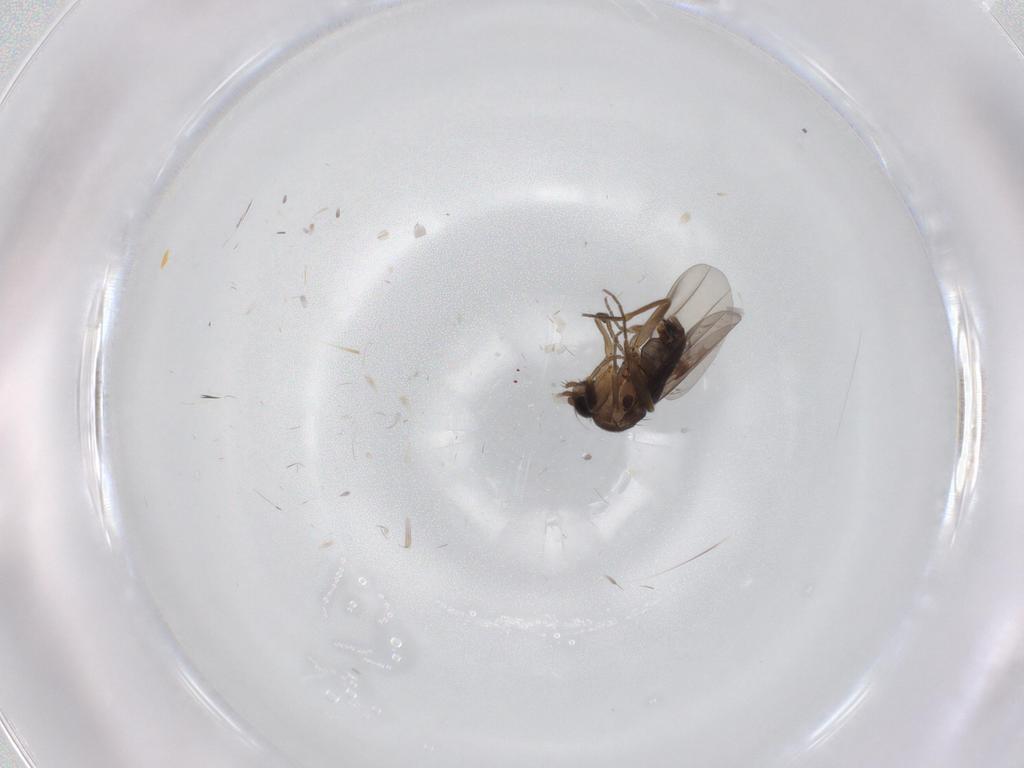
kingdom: Animalia
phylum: Arthropoda
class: Insecta
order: Diptera
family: Phoridae
